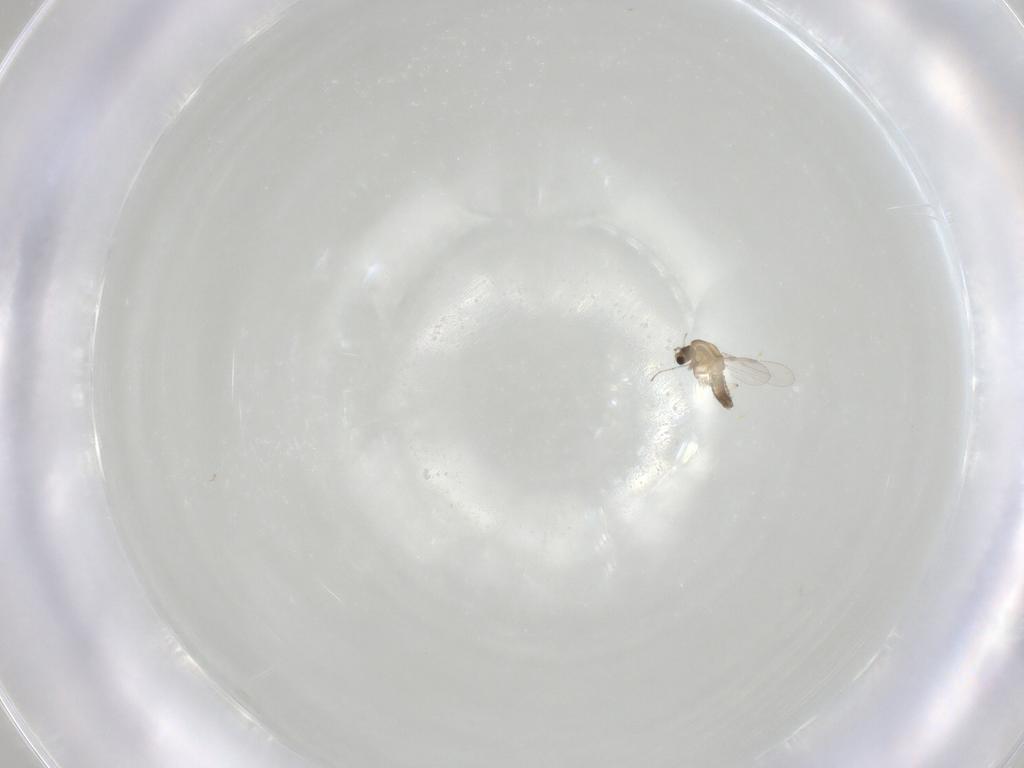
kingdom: Animalia
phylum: Arthropoda
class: Insecta
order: Diptera
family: Chironomidae
